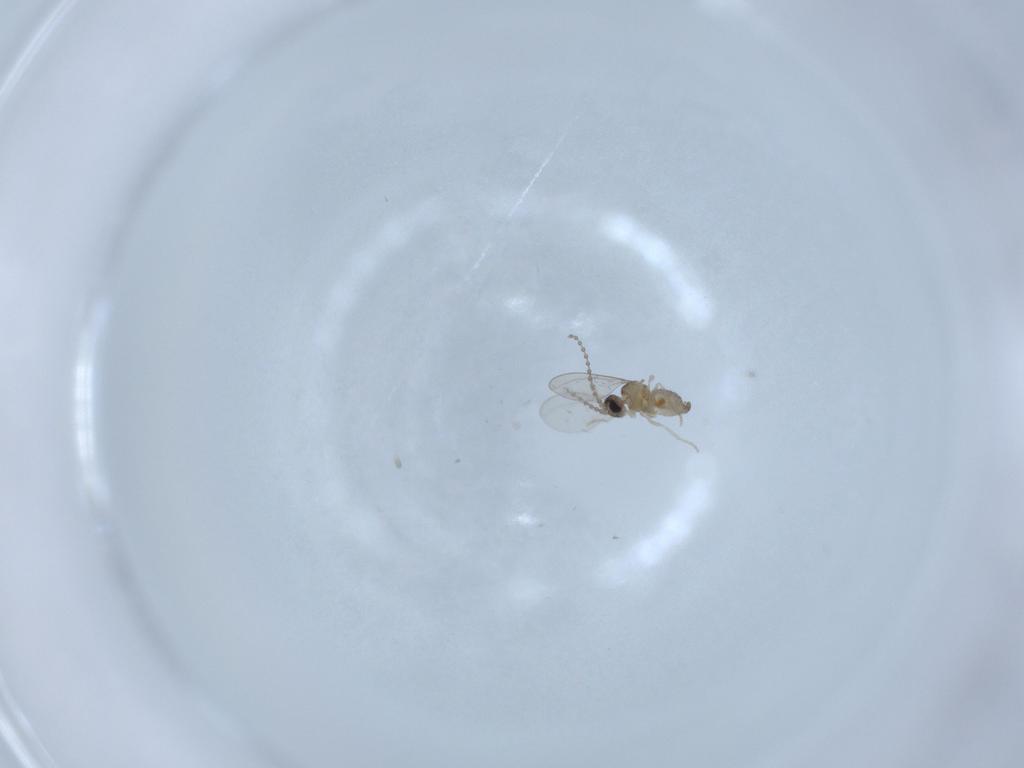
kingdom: Animalia
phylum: Arthropoda
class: Insecta
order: Diptera
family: Cecidomyiidae
